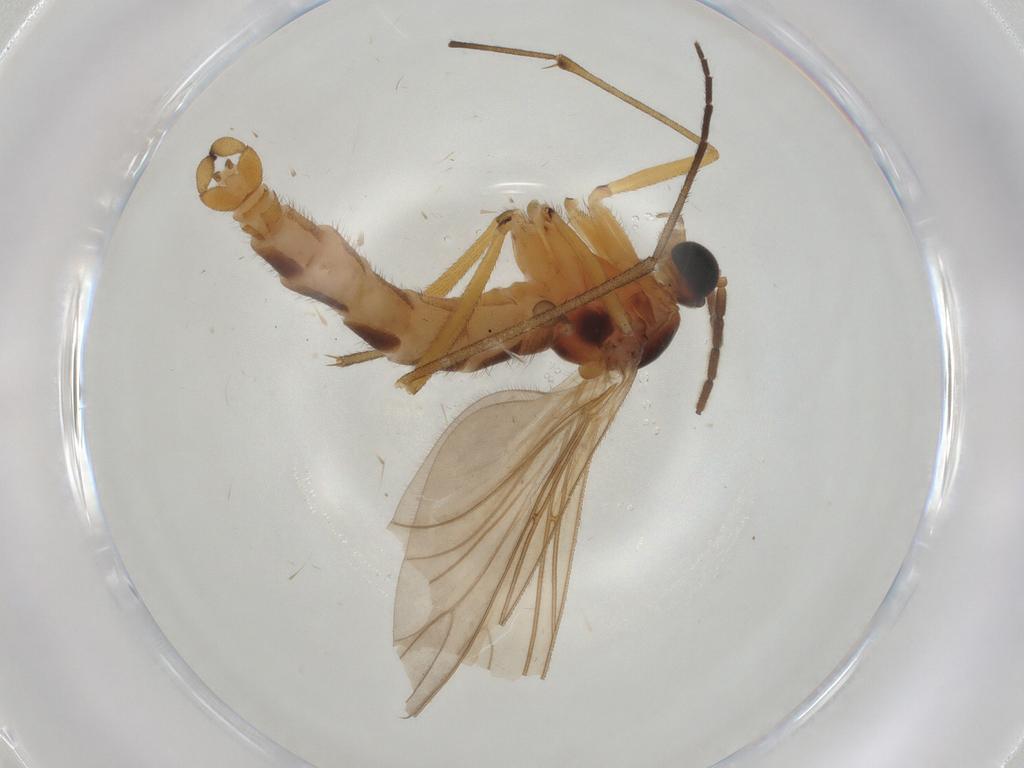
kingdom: Animalia
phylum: Arthropoda
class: Insecta
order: Diptera
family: Sciaridae
